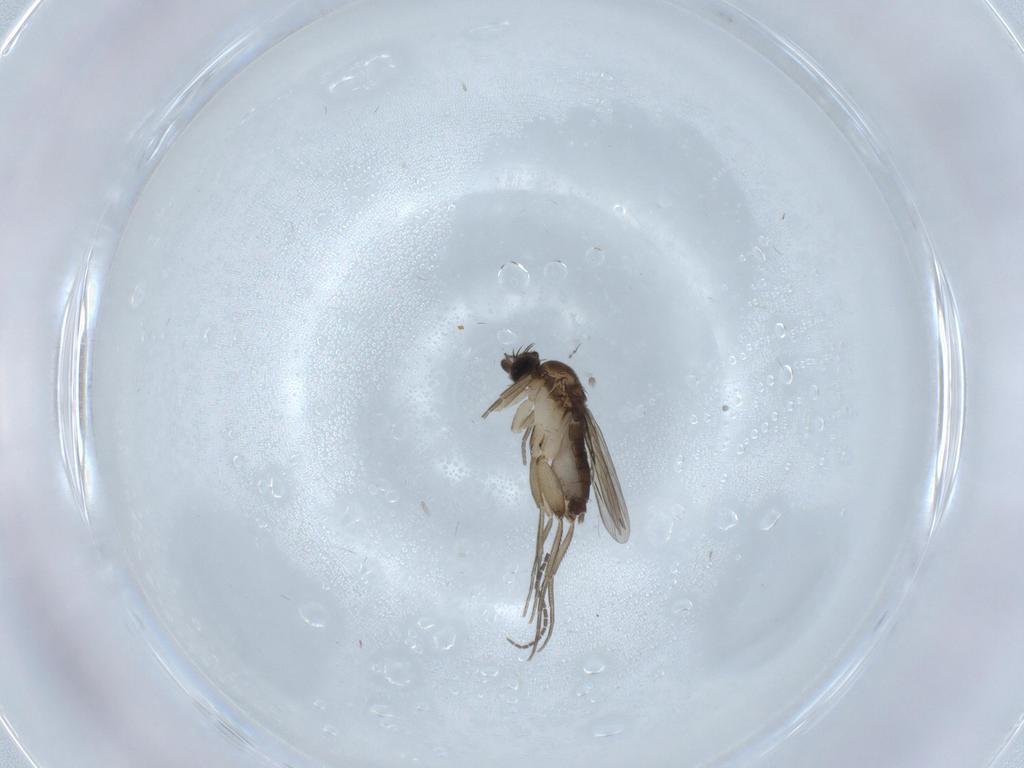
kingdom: Animalia
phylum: Arthropoda
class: Insecta
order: Diptera
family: Phoridae
